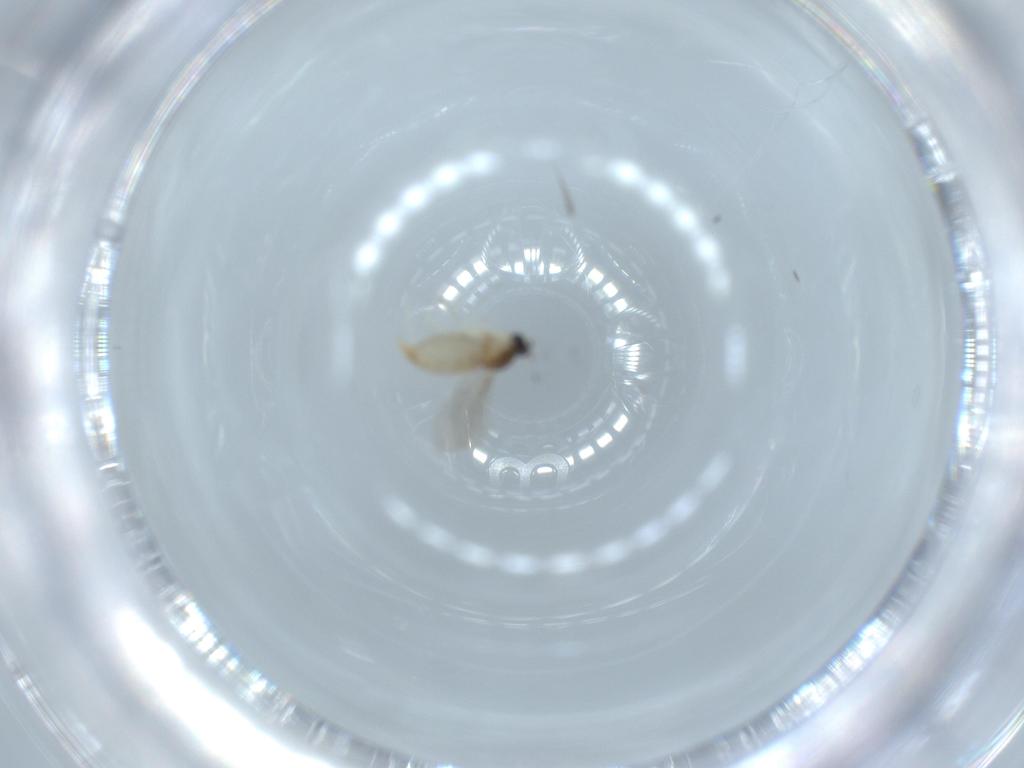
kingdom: Animalia
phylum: Arthropoda
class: Insecta
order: Diptera
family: Cecidomyiidae
